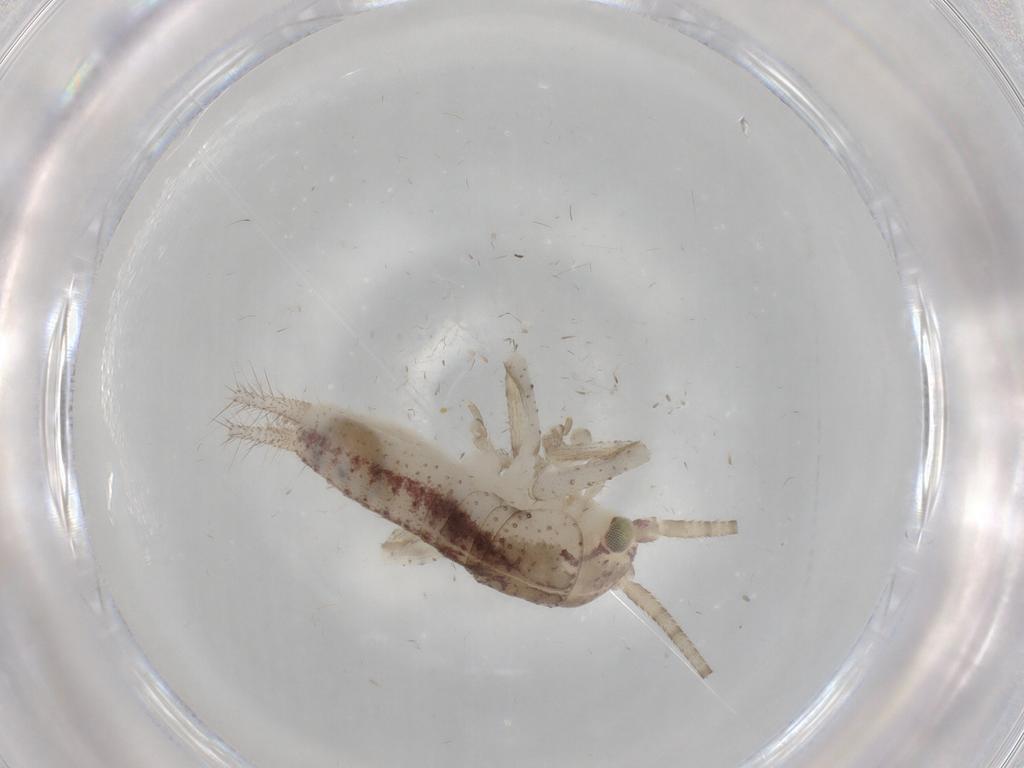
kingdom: Animalia
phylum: Arthropoda
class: Insecta
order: Orthoptera
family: Gryllidae
